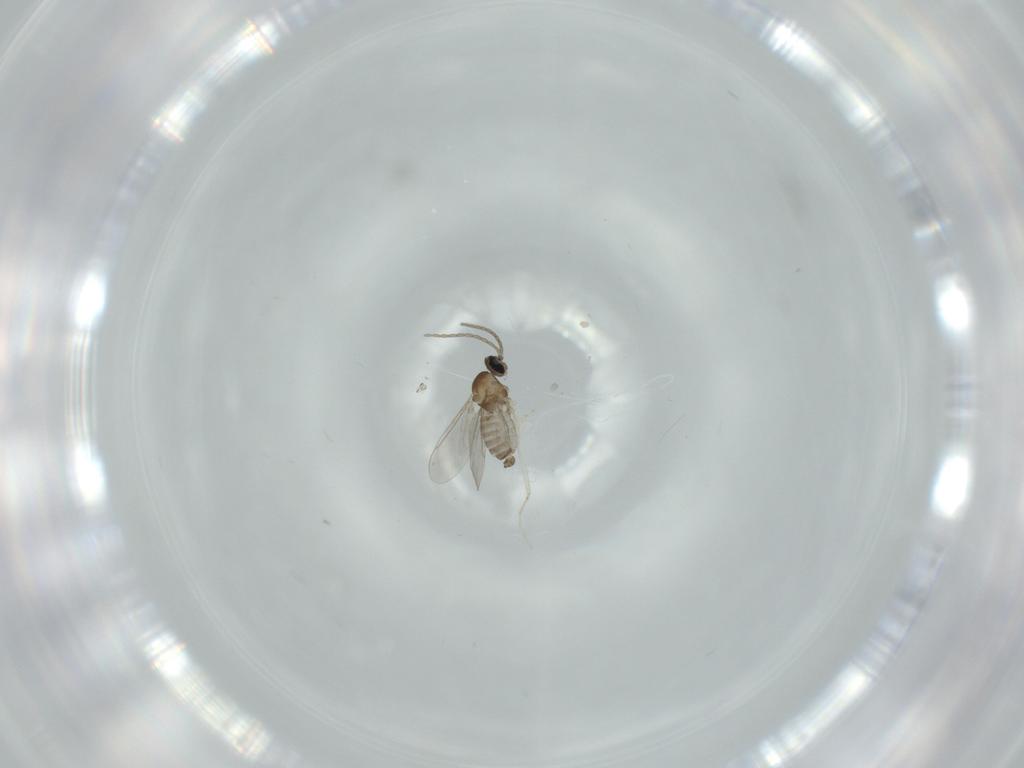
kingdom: Animalia
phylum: Arthropoda
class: Insecta
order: Diptera
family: Cecidomyiidae
